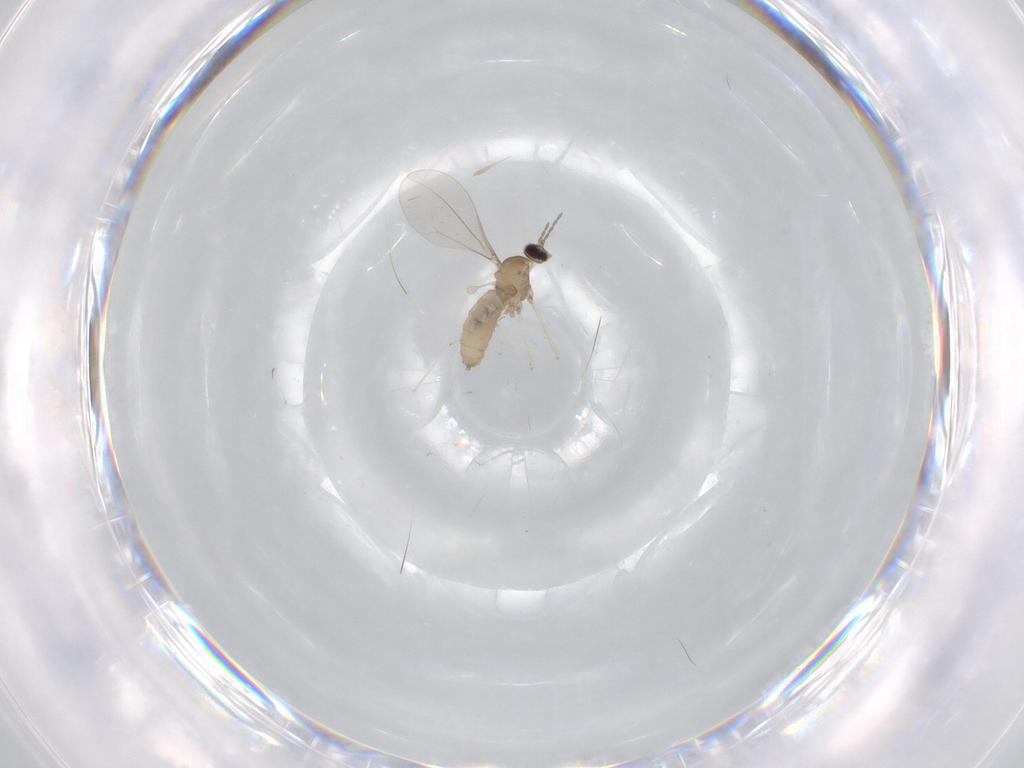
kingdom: Animalia
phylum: Arthropoda
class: Insecta
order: Diptera
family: Cecidomyiidae
